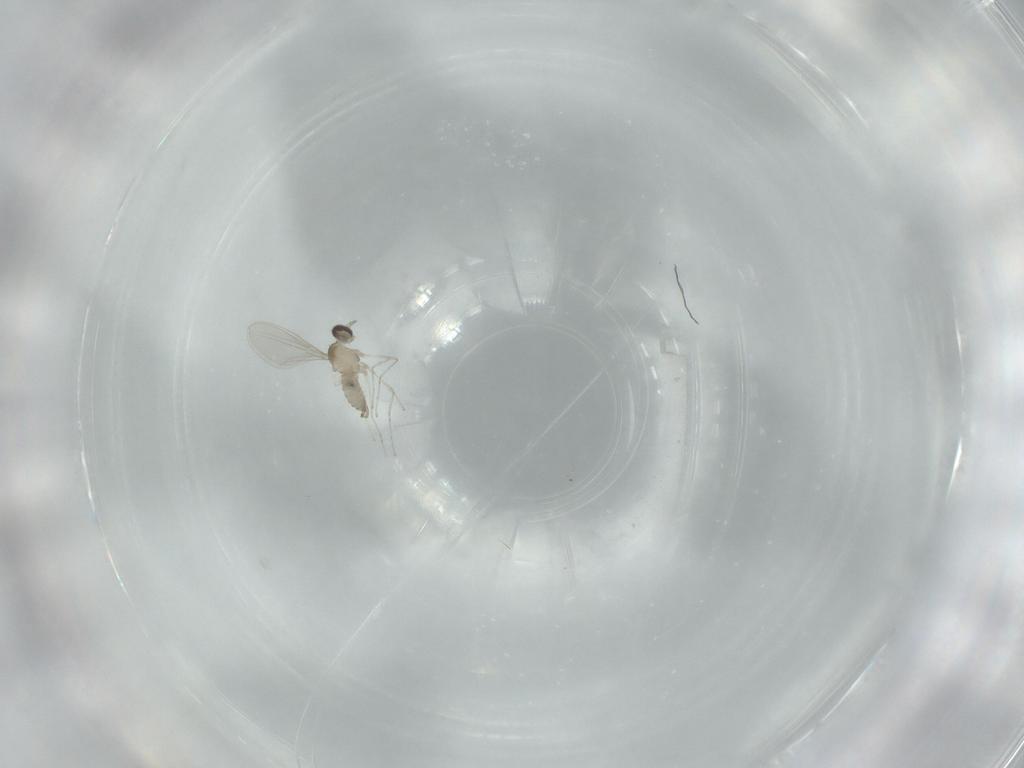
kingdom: Animalia
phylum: Arthropoda
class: Insecta
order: Diptera
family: Cecidomyiidae
